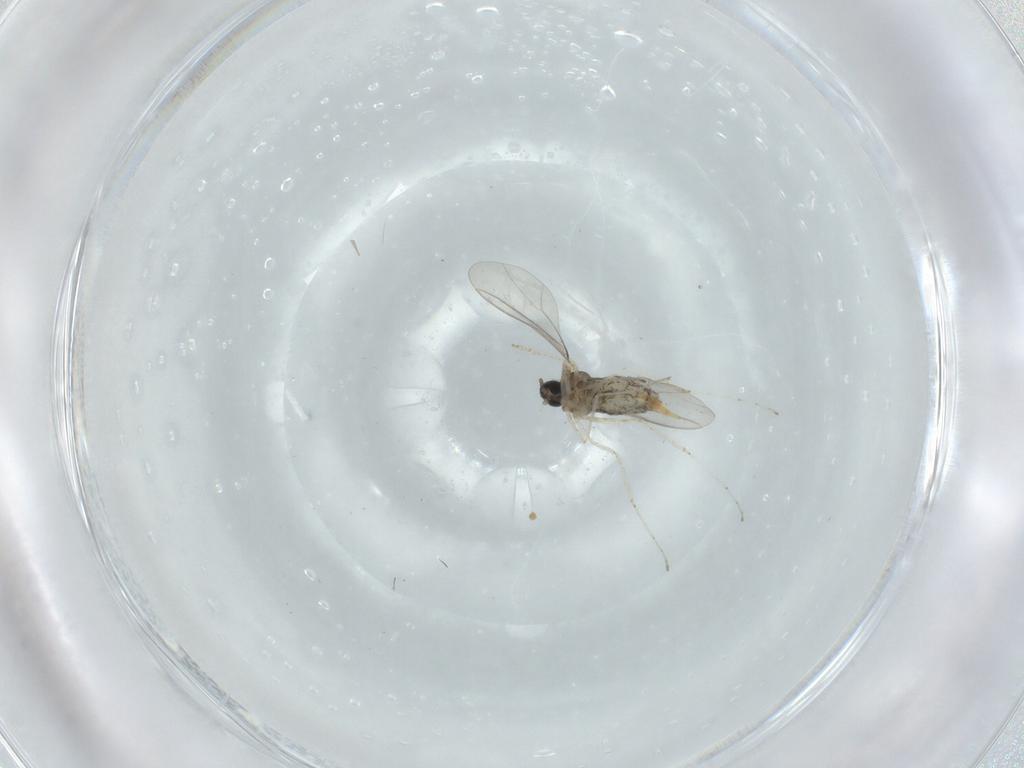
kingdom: Animalia
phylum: Arthropoda
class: Insecta
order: Diptera
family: Cecidomyiidae
